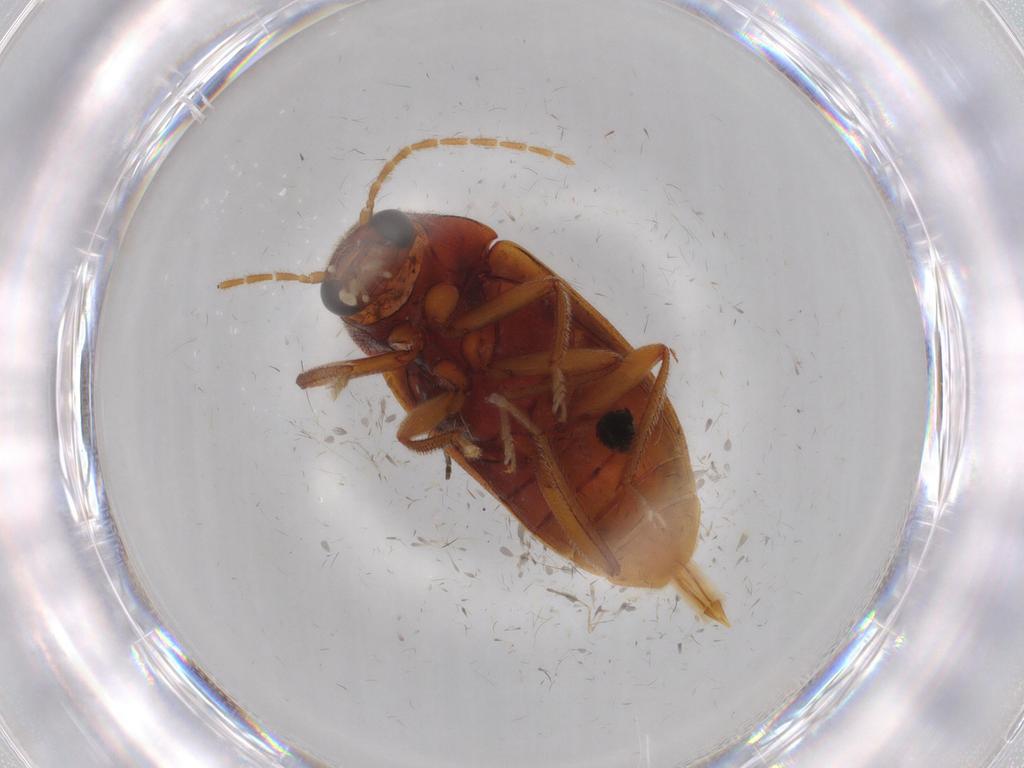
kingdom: Animalia
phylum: Arthropoda
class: Insecta
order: Coleoptera
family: Ptilodactylidae
